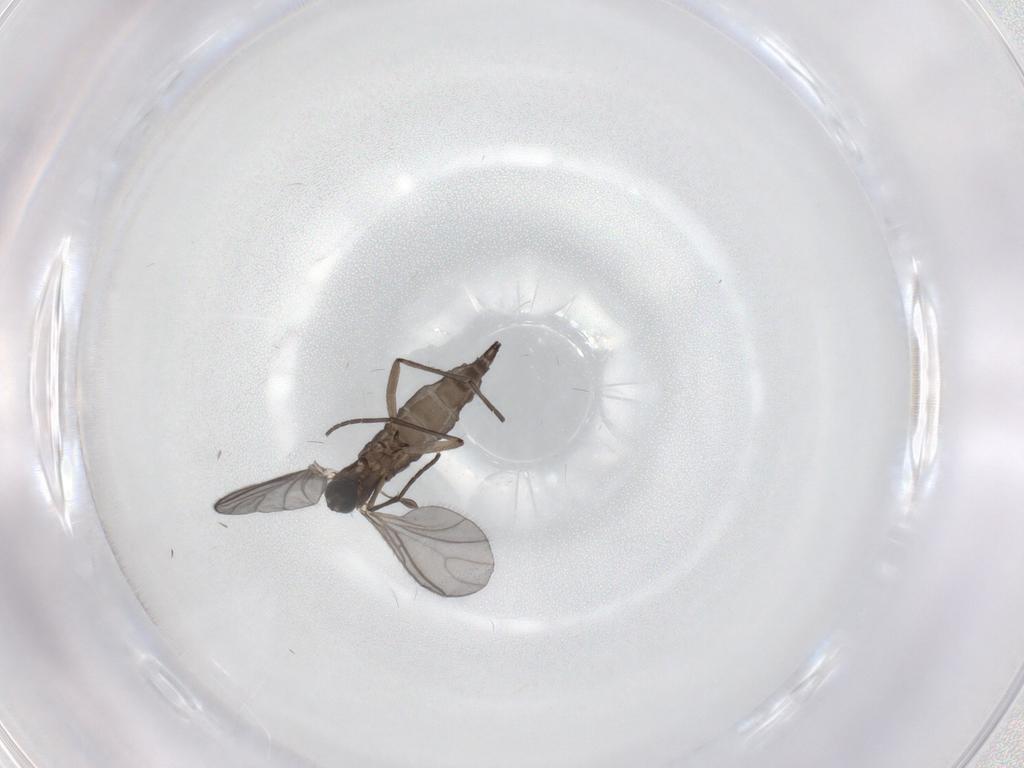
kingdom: Animalia
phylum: Arthropoda
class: Insecta
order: Diptera
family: Sciaridae
